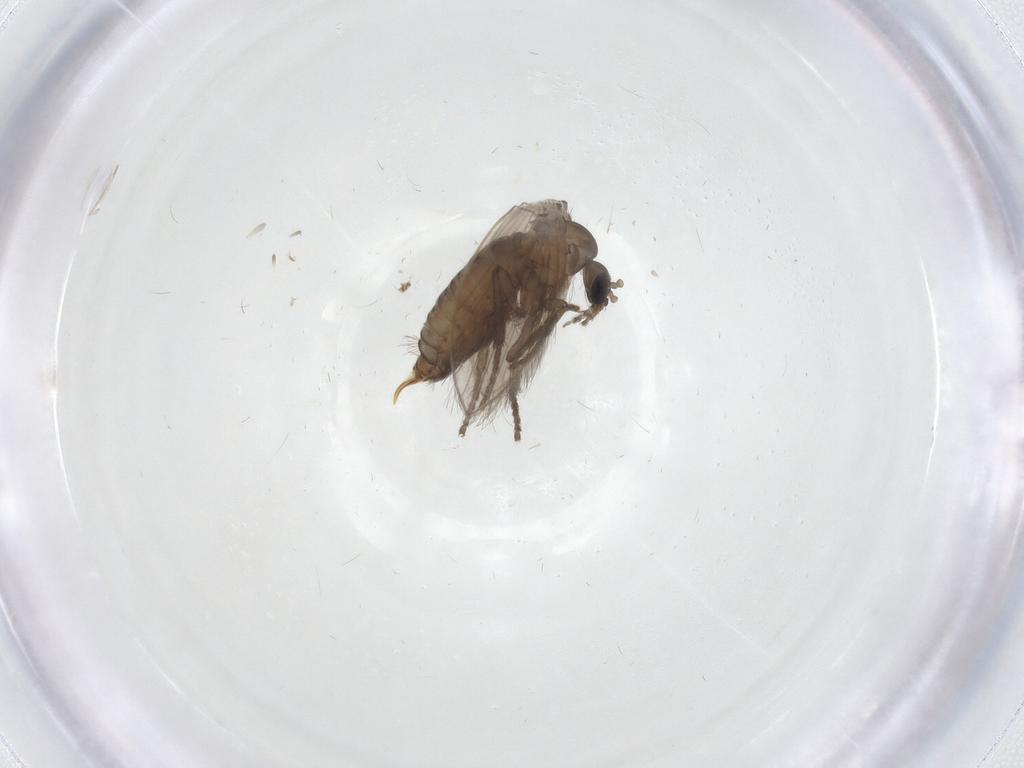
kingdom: Animalia
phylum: Arthropoda
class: Insecta
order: Diptera
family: Psychodidae
